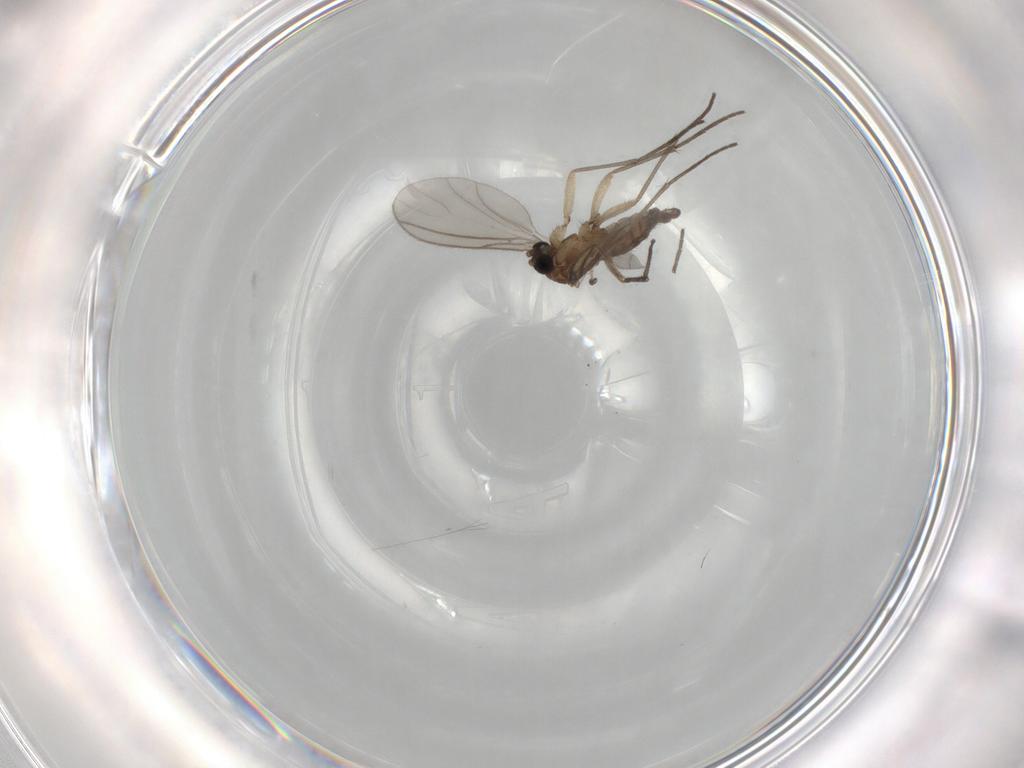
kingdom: Animalia
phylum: Arthropoda
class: Insecta
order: Diptera
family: Sciaridae
